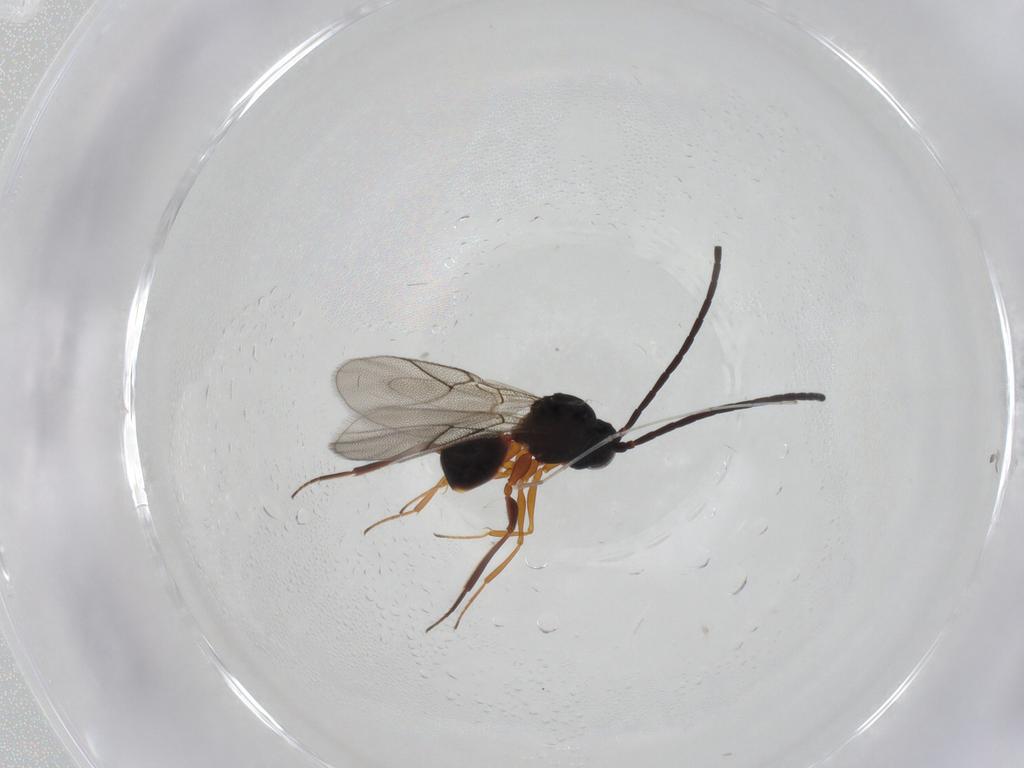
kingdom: Animalia
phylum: Arthropoda
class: Insecta
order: Hymenoptera
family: Figitidae
